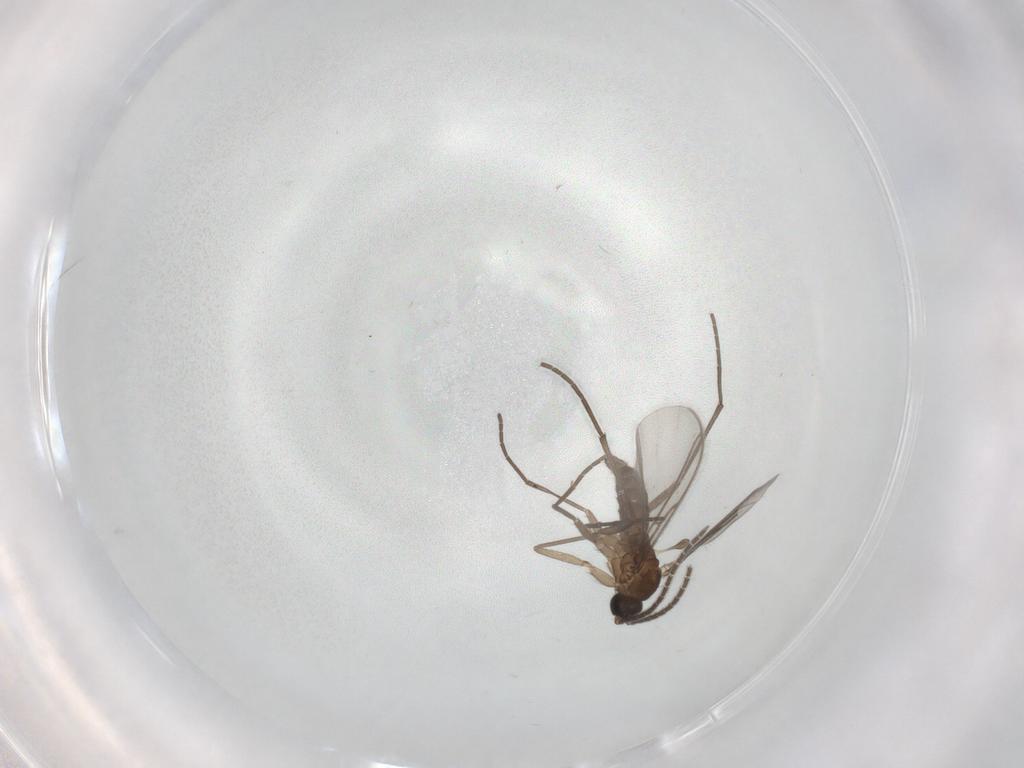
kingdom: Animalia
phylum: Arthropoda
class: Insecta
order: Diptera
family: Sciaridae
